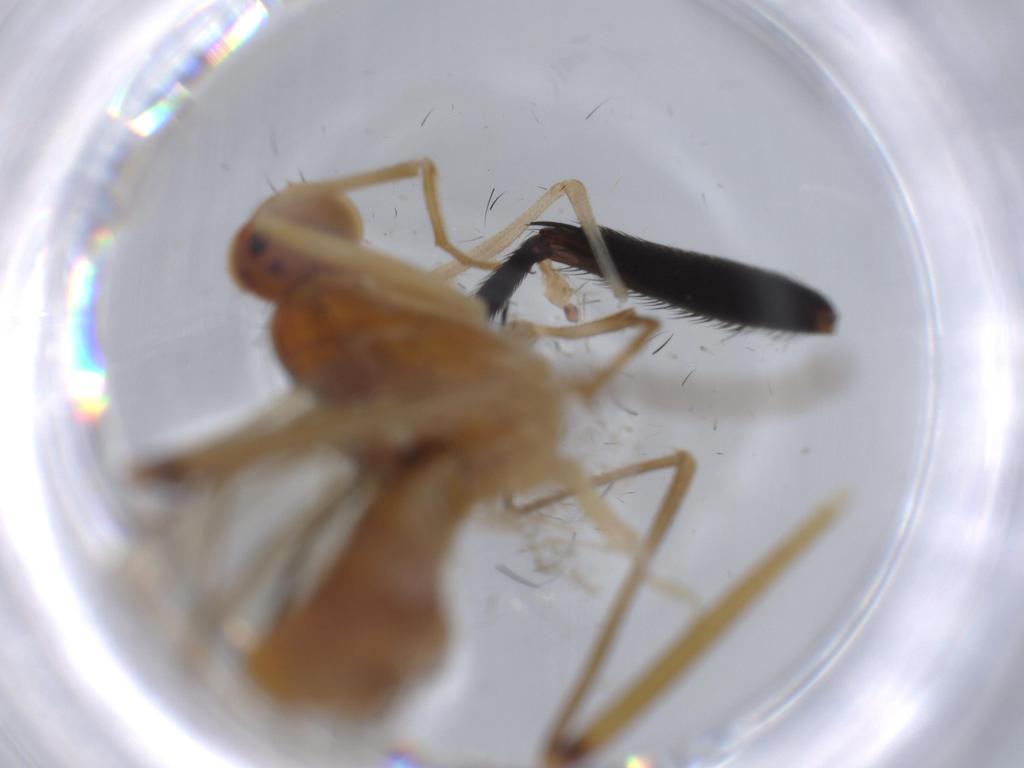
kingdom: Animalia
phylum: Arthropoda
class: Insecta
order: Diptera
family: Micropezidae
